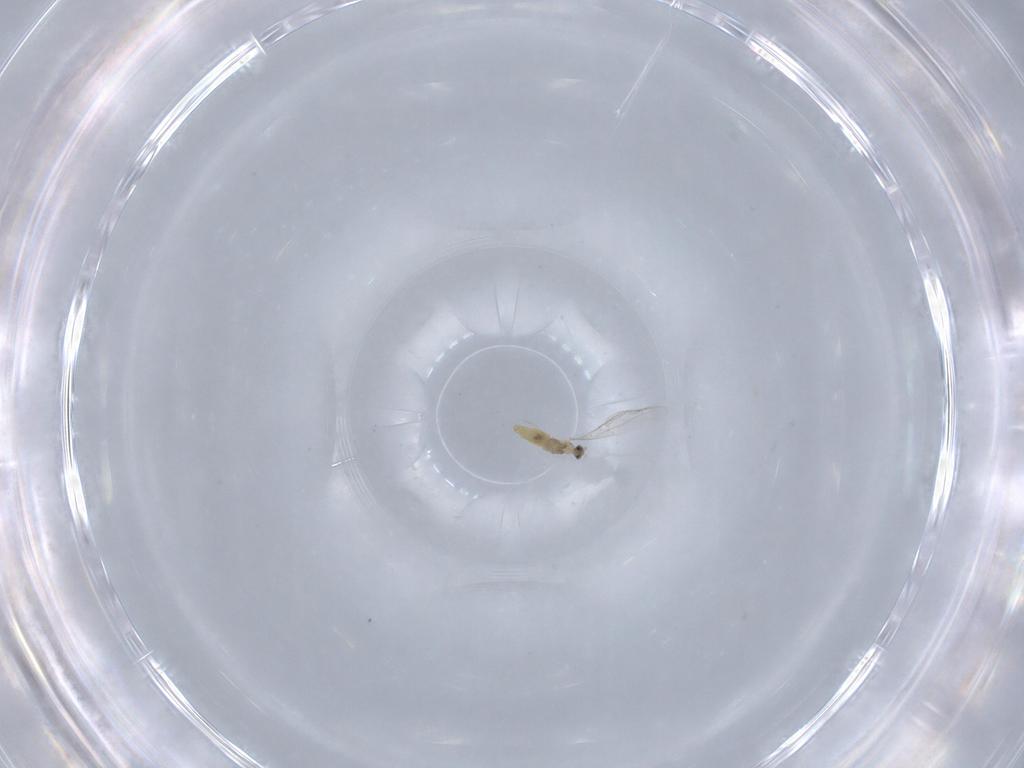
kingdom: Animalia
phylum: Arthropoda
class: Insecta
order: Diptera
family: Cecidomyiidae
